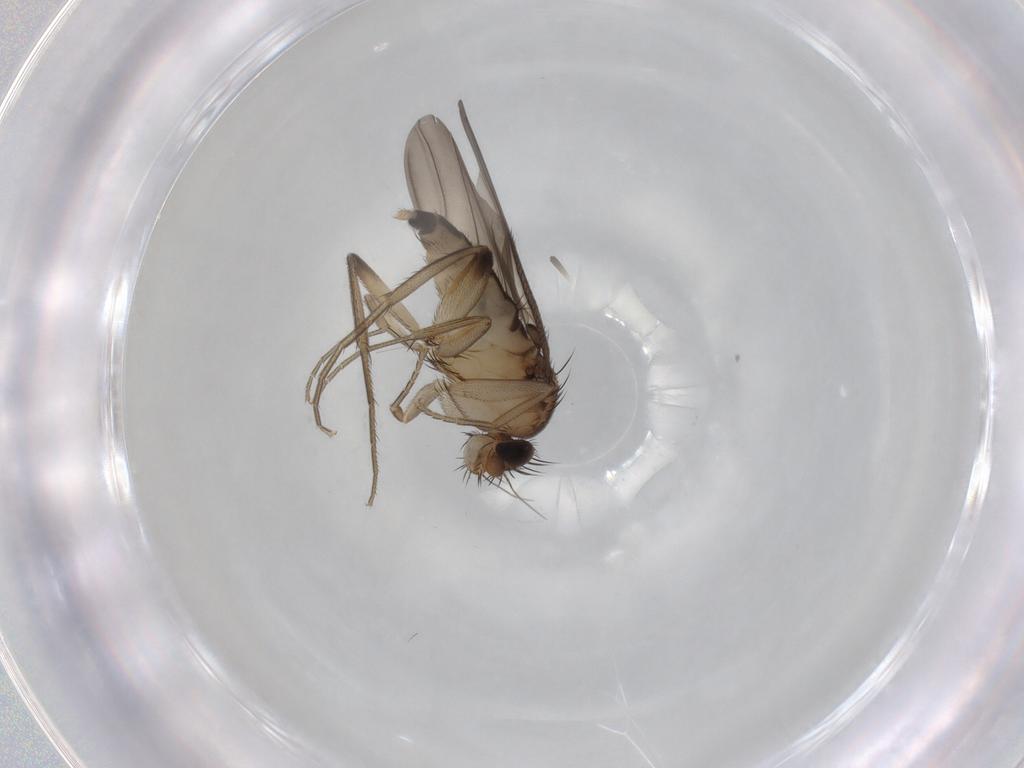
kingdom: Animalia
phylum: Arthropoda
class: Insecta
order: Diptera
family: Phoridae
